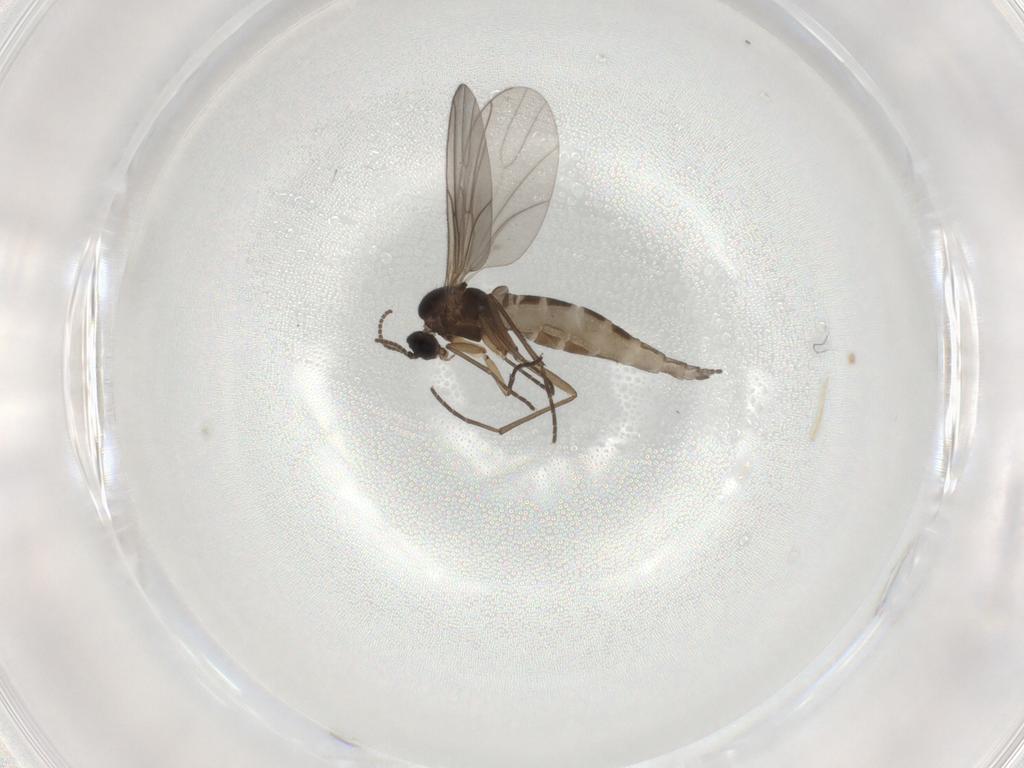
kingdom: Animalia
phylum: Arthropoda
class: Insecta
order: Diptera
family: Sciaridae
